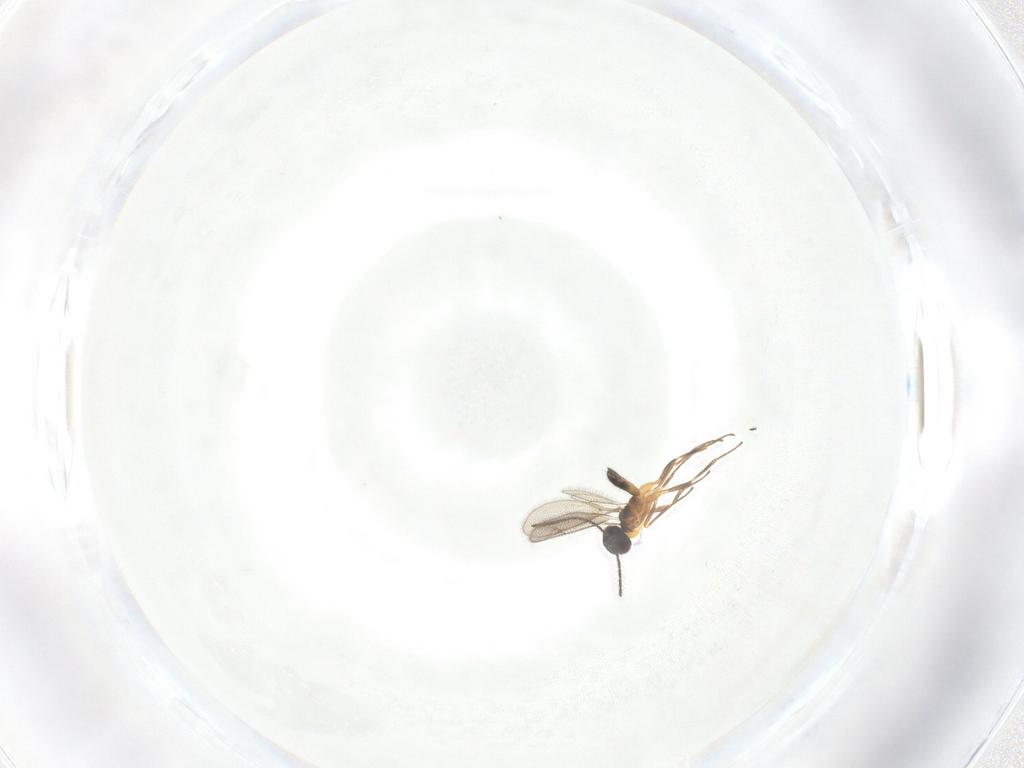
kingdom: Animalia
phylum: Arthropoda
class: Insecta
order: Hymenoptera
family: Eupelmidae
